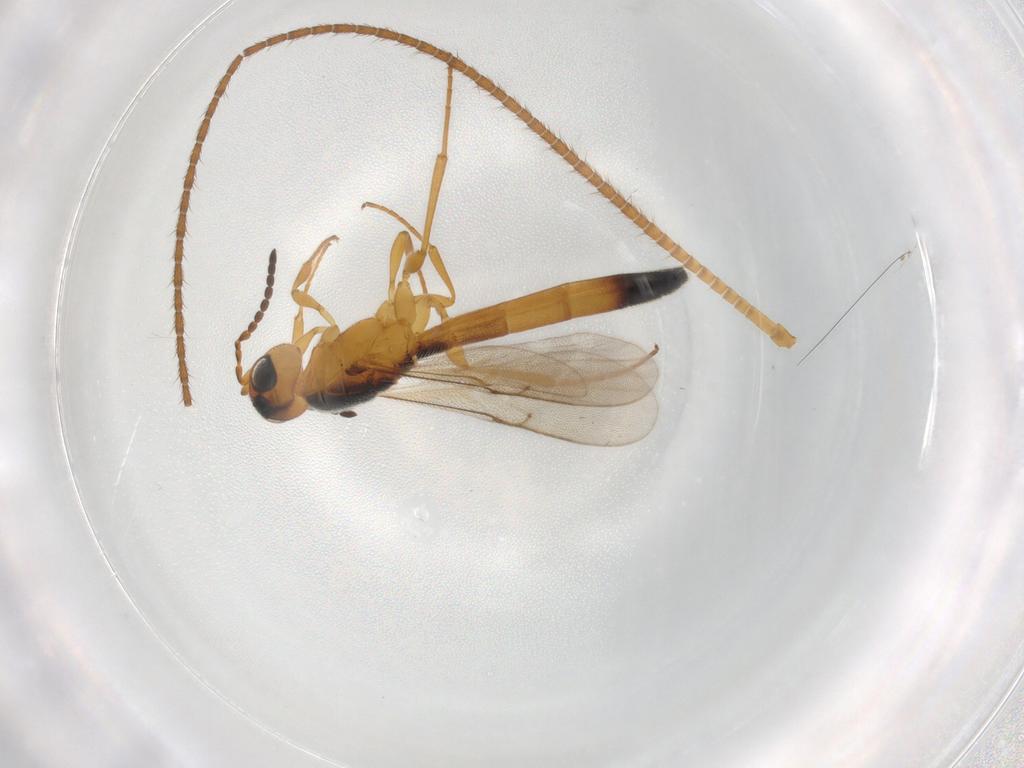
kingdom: Animalia
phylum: Arthropoda
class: Insecta
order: Hymenoptera
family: Scelionidae
